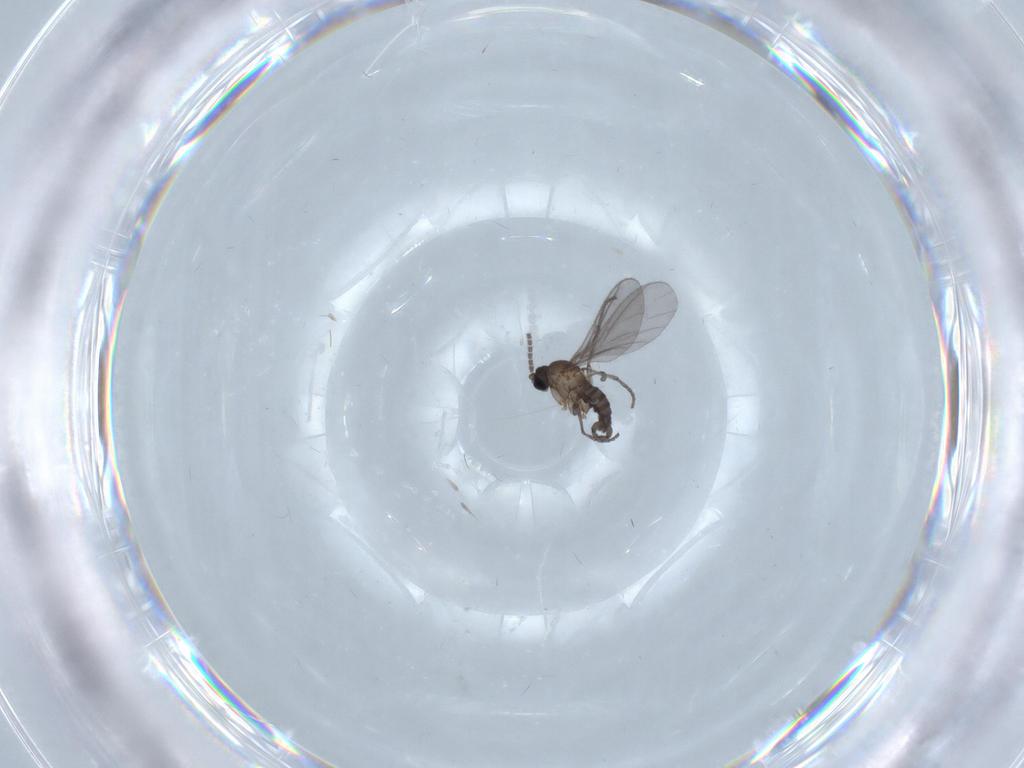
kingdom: Animalia
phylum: Arthropoda
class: Insecta
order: Diptera
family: Sciaridae
